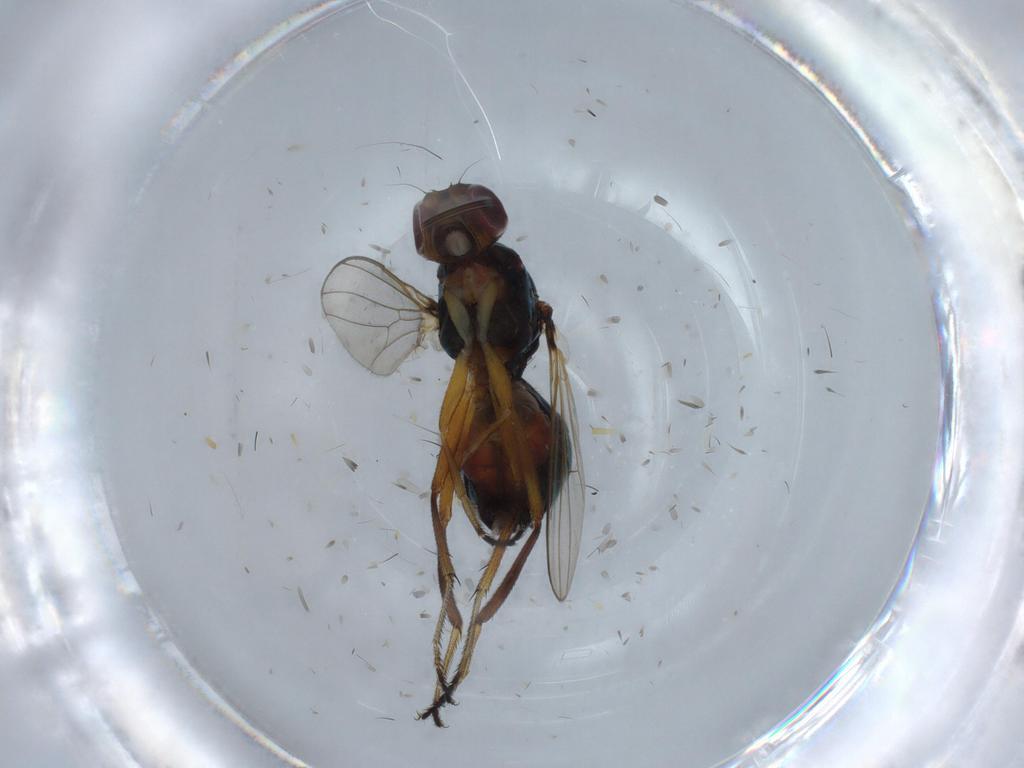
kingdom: Animalia
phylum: Arthropoda
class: Insecta
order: Diptera
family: Sepsidae
